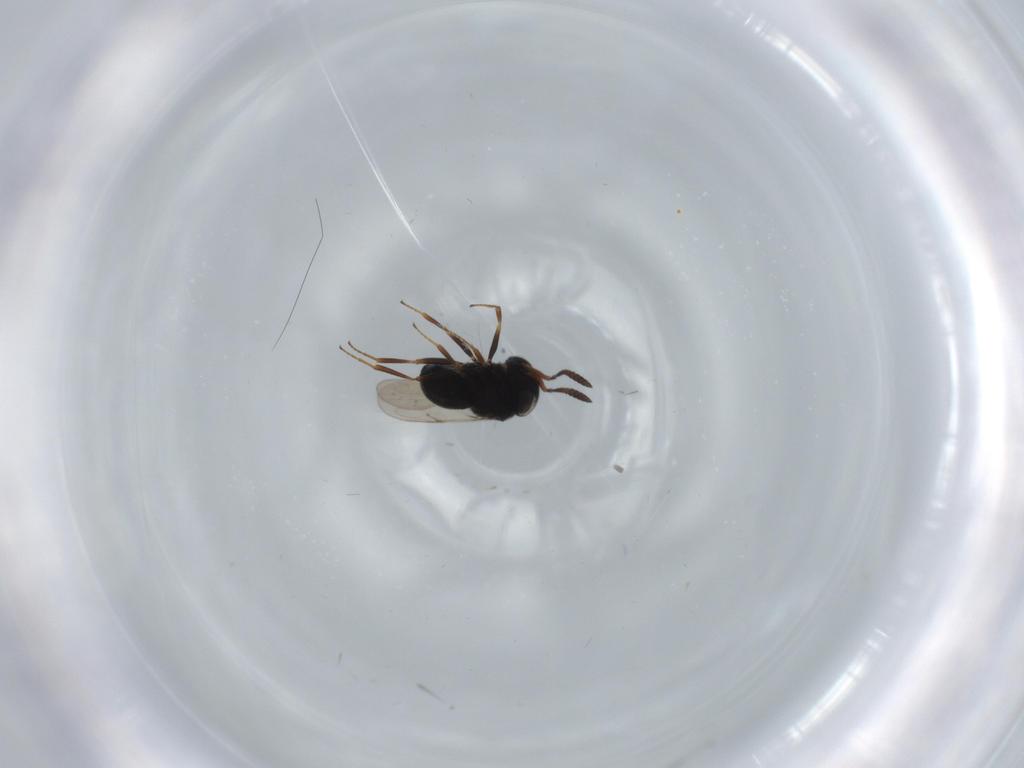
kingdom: Animalia
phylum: Arthropoda
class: Insecta
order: Hymenoptera
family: Scelionidae
